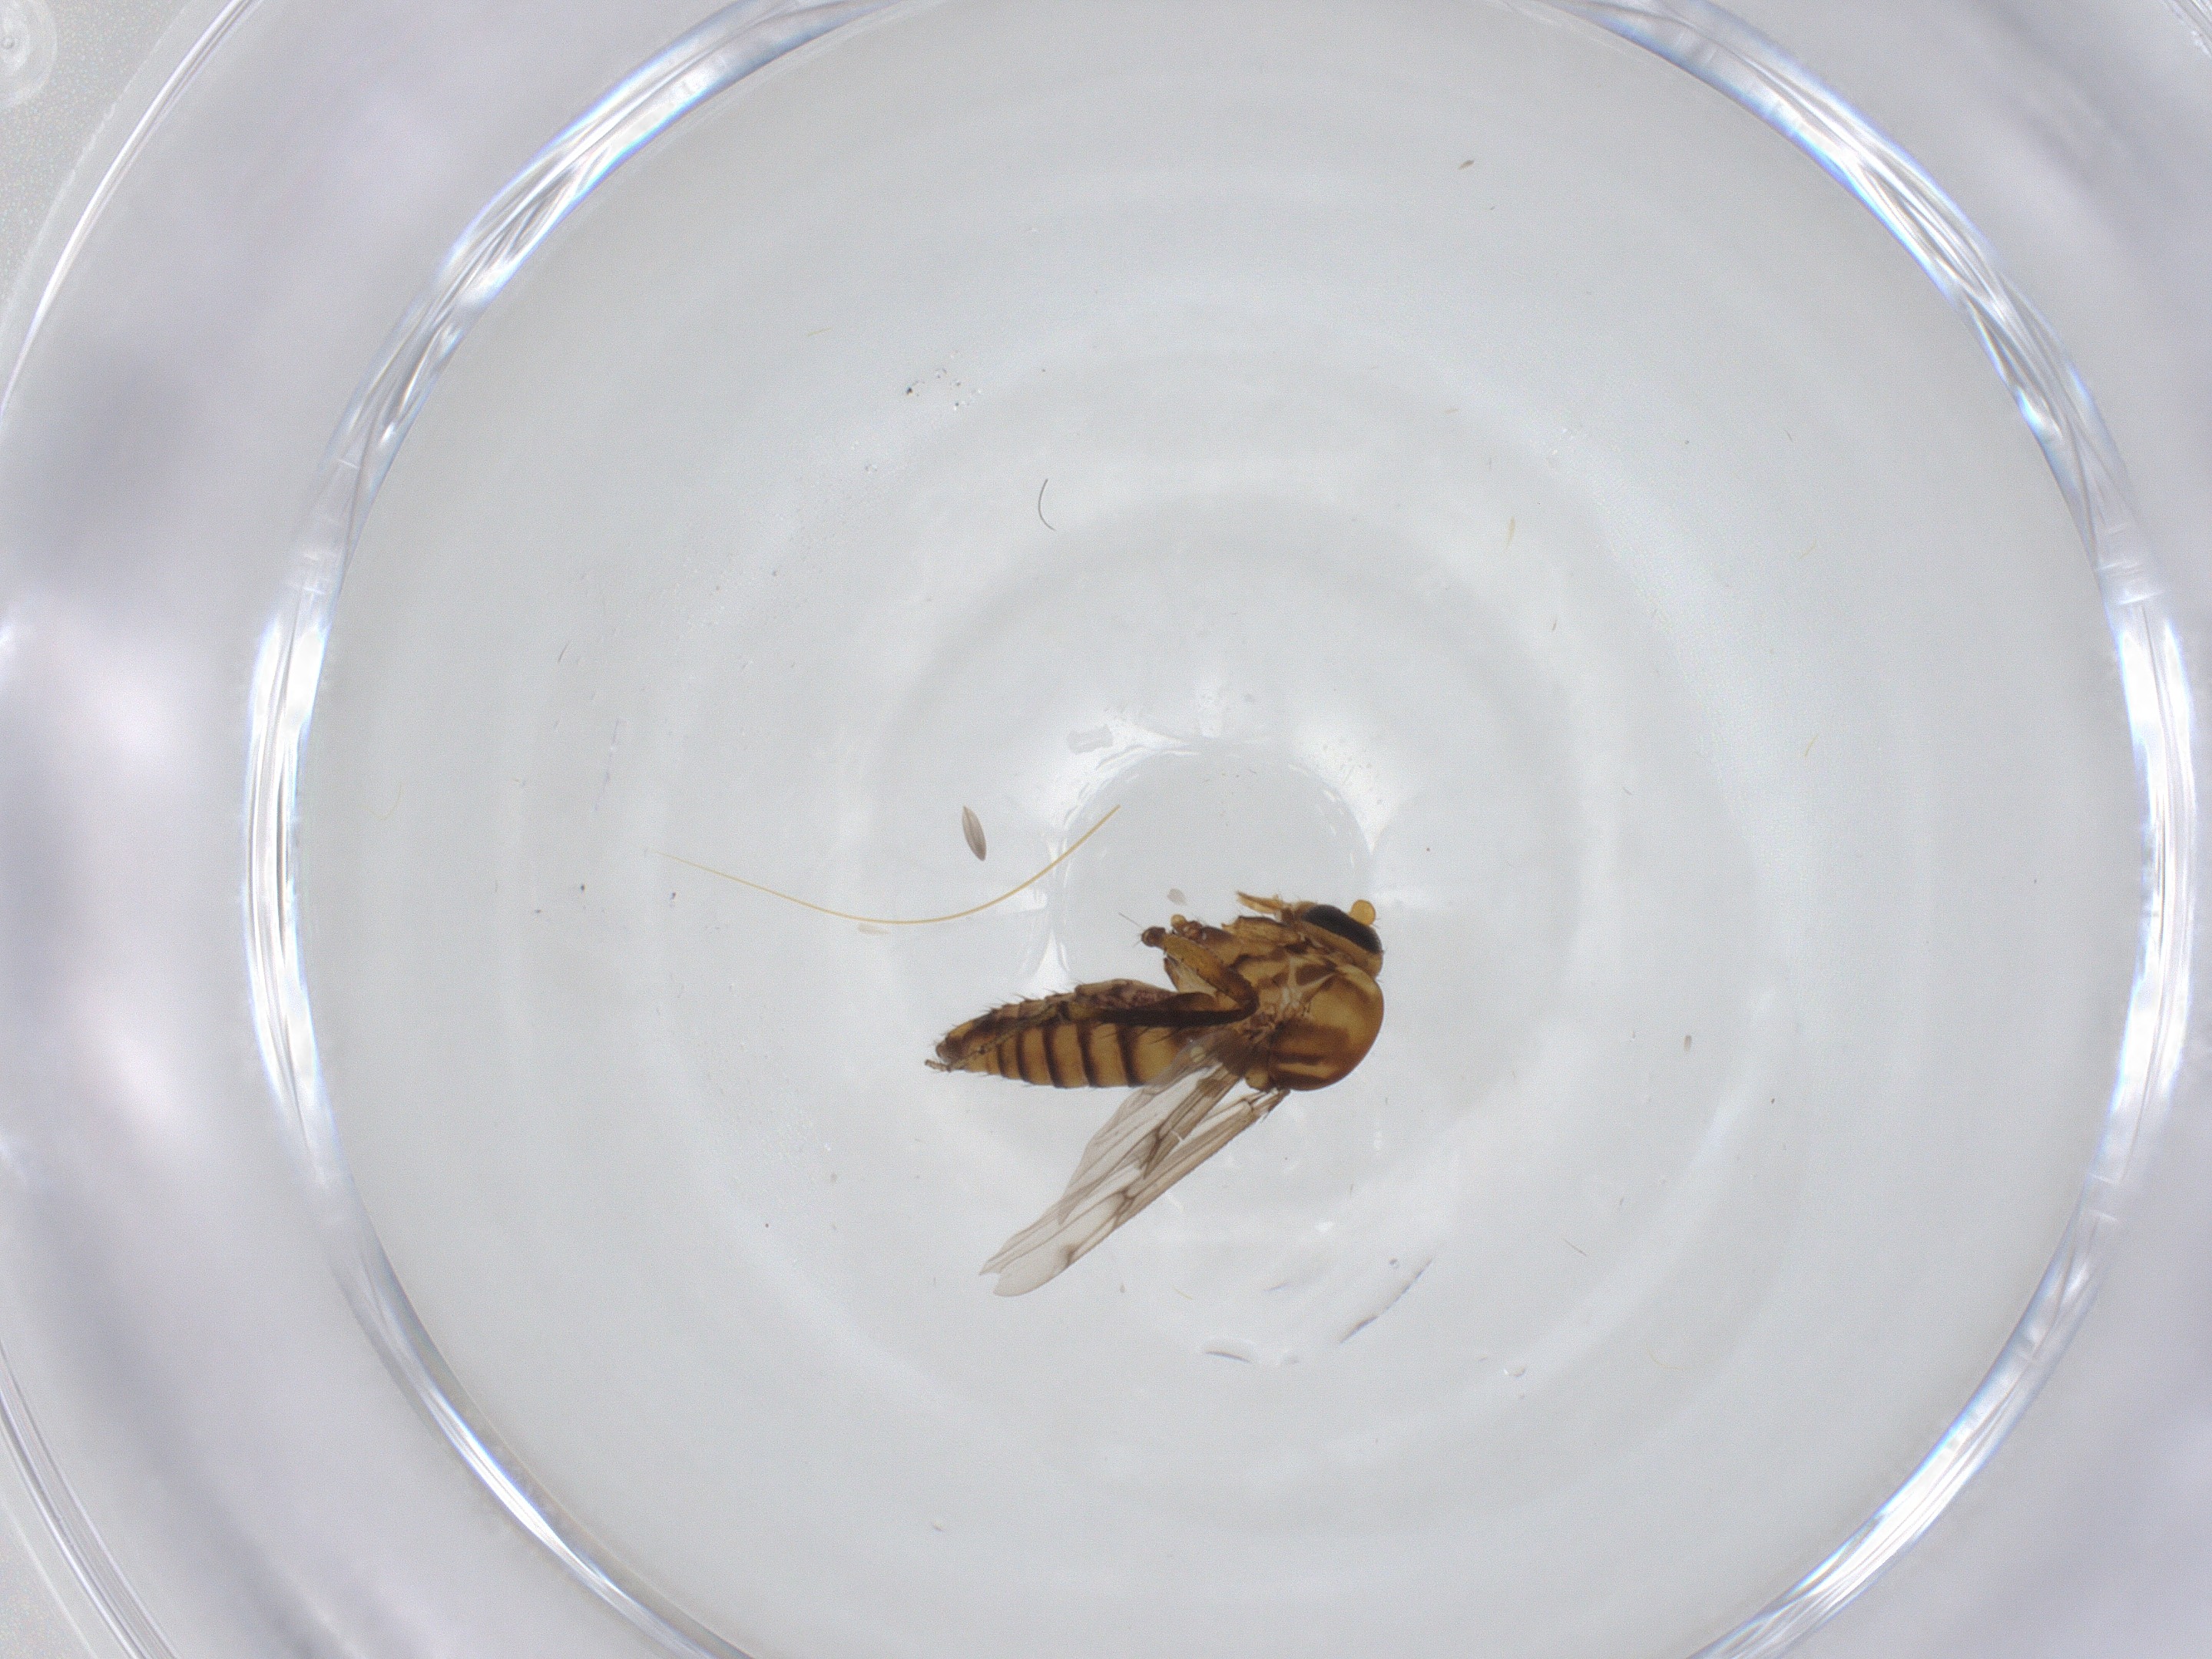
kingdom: Animalia
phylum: Arthropoda
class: Insecta
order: Diptera
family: Ceratopogonidae
